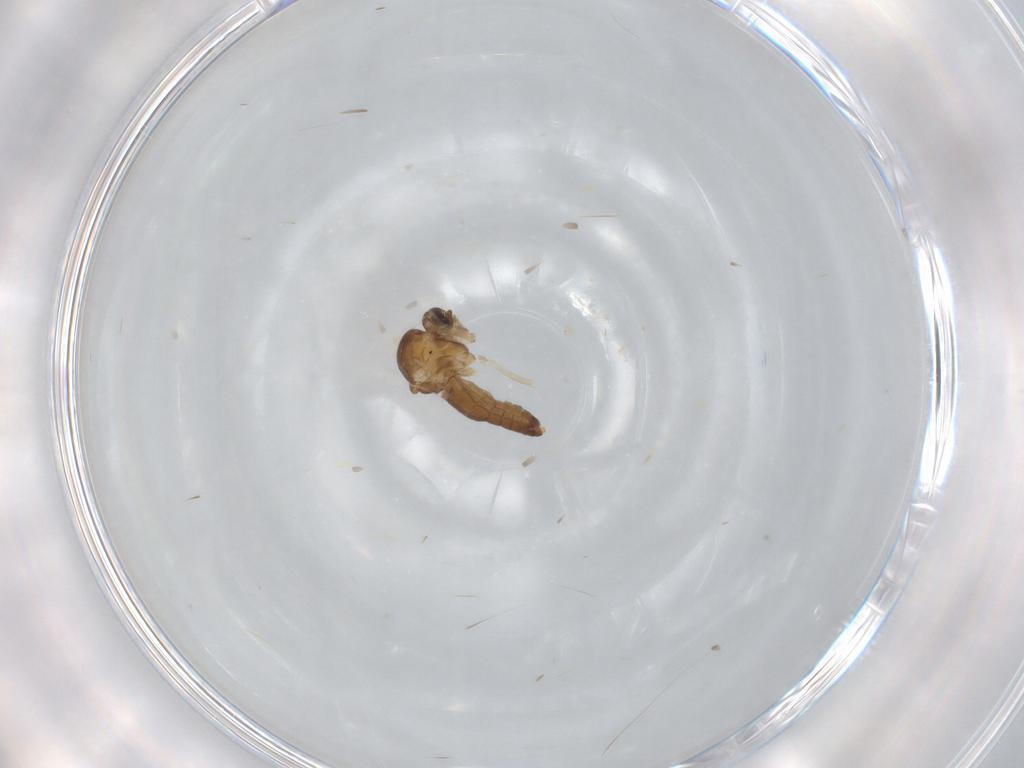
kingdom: Animalia
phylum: Arthropoda
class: Insecta
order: Diptera
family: Ceratopogonidae
